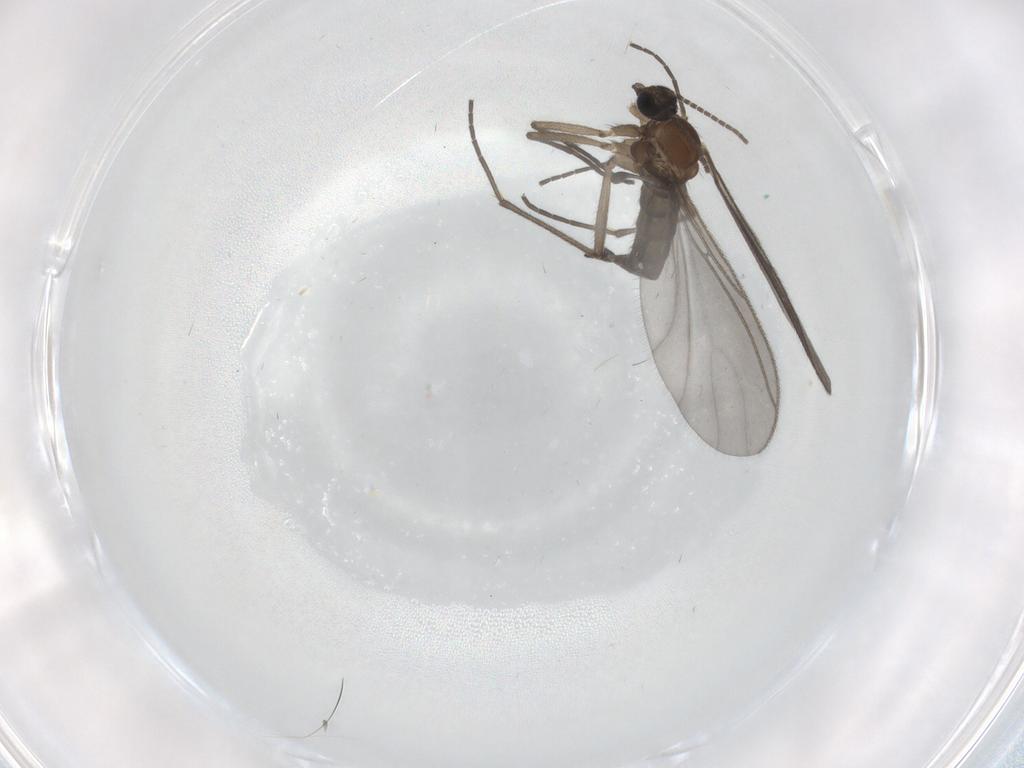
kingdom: Animalia
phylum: Arthropoda
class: Insecta
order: Diptera
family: Sciaridae
